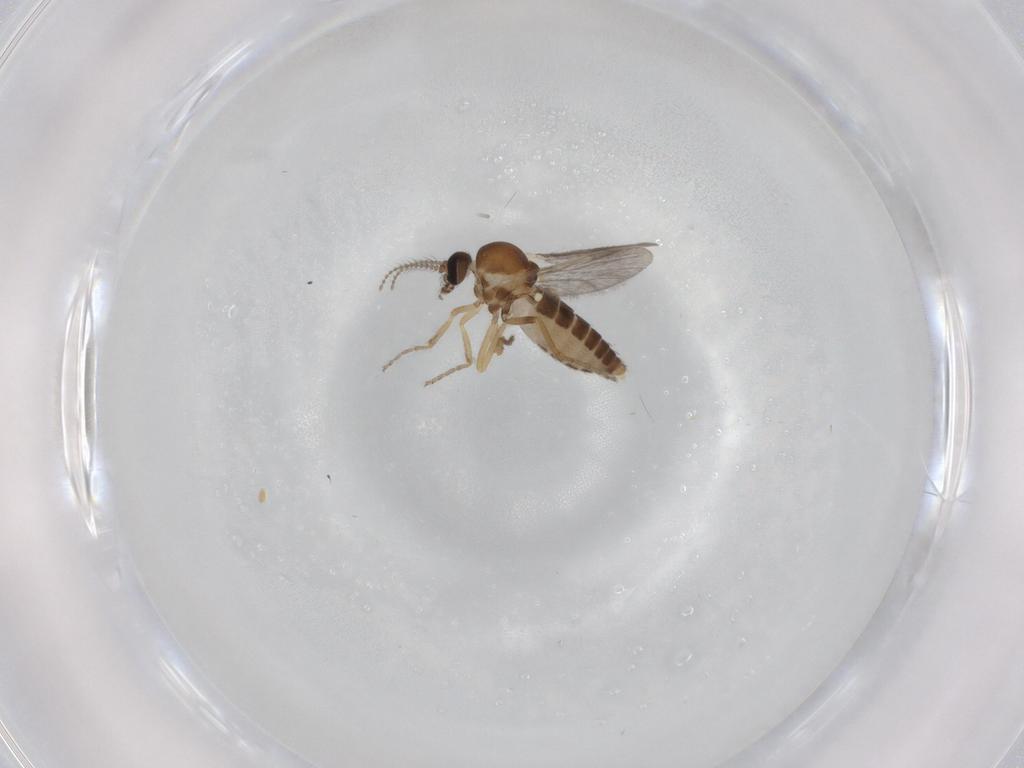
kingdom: Animalia
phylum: Arthropoda
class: Insecta
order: Diptera
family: Ceratopogonidae
